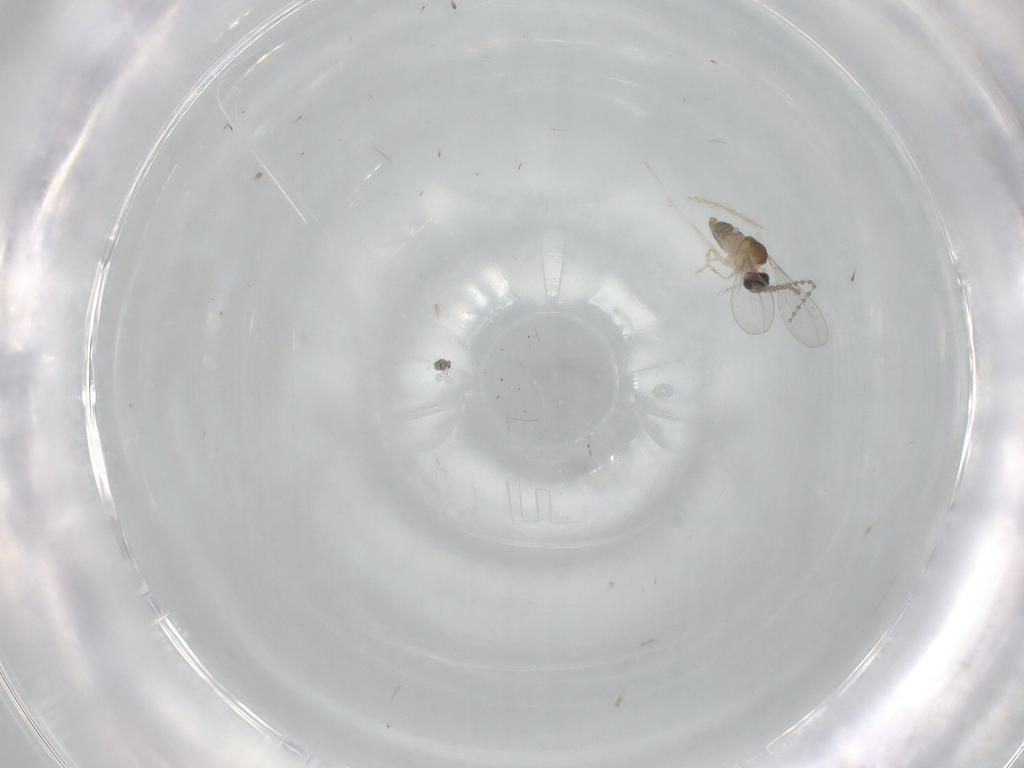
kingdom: Animalia
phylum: Arthropoda
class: Insecta
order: Diptera
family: Cecidomyiidae
